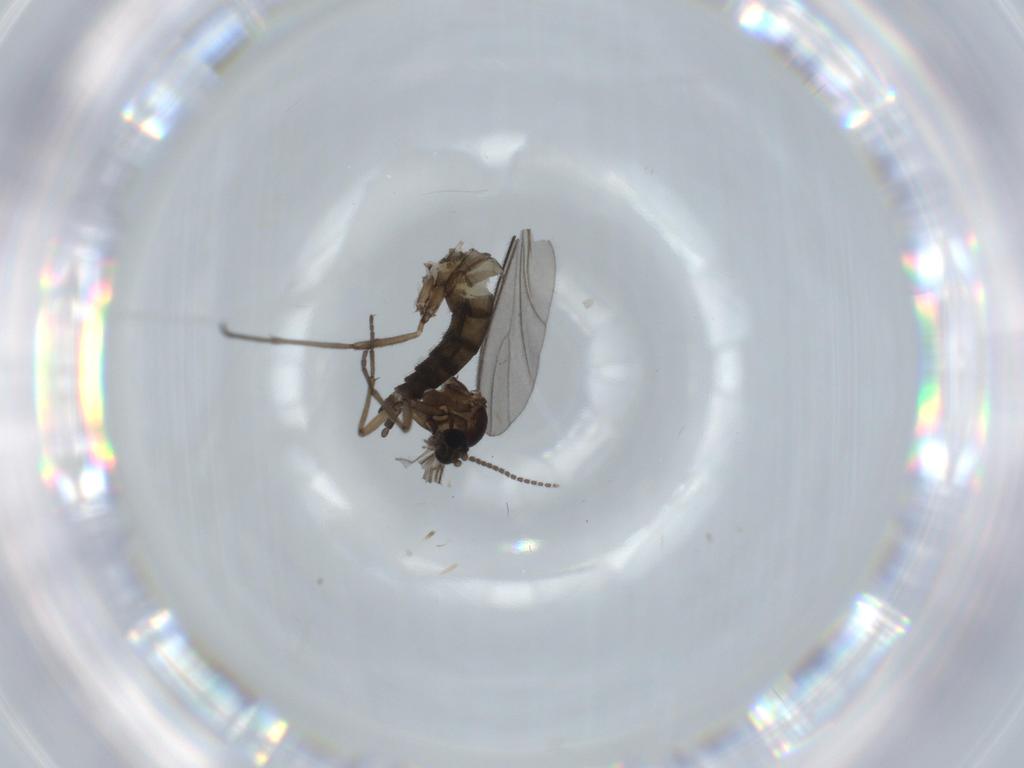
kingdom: Animalia
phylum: Arthropoda
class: Insecta
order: Diptera
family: Sciaridae
